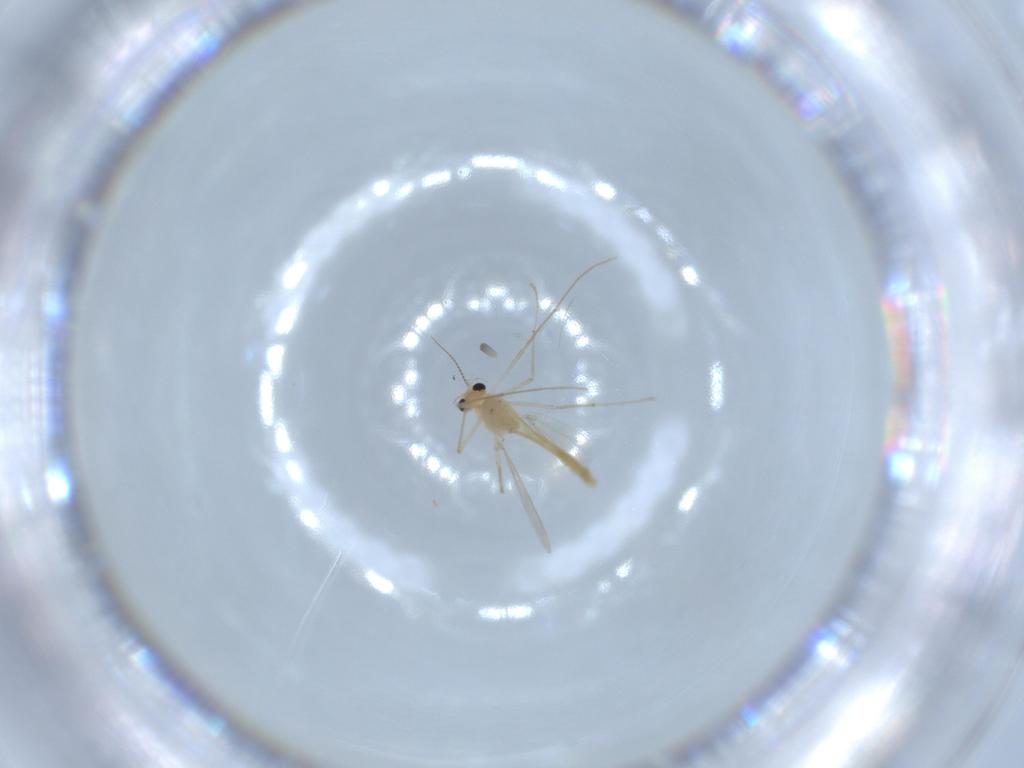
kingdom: Animalia
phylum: Arthropoda
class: Insecta
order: Diptera
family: Chironomidae
